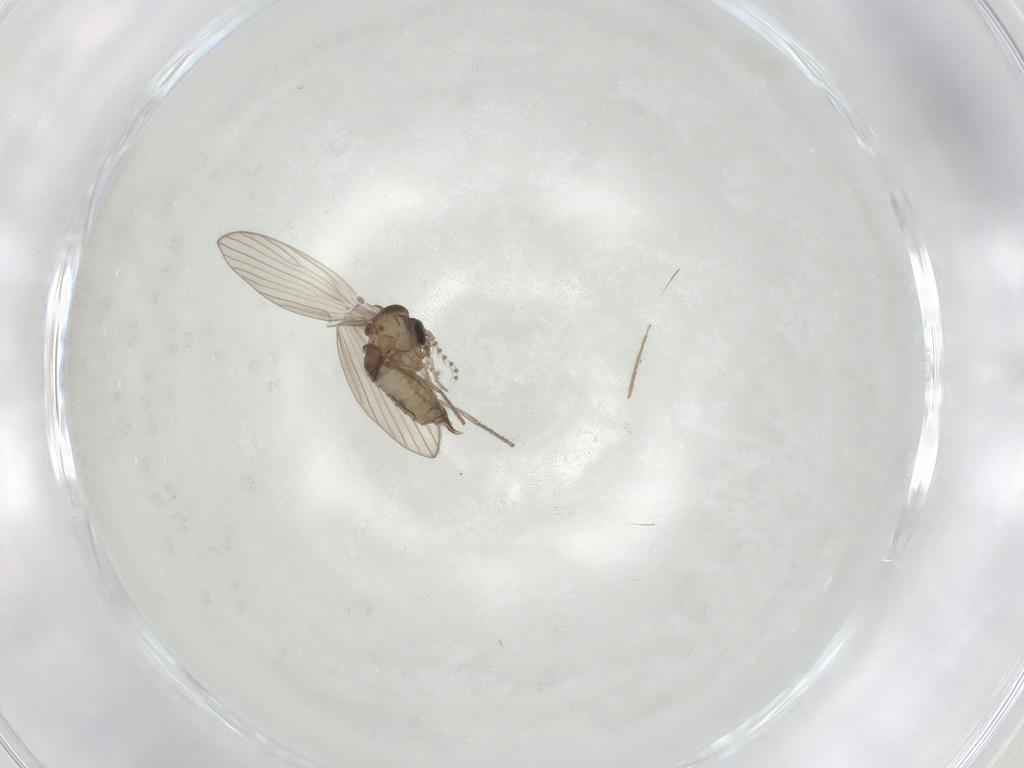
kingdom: Animalia
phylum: Arthropoda
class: Insecta
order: Diptera
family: Psychodidae
